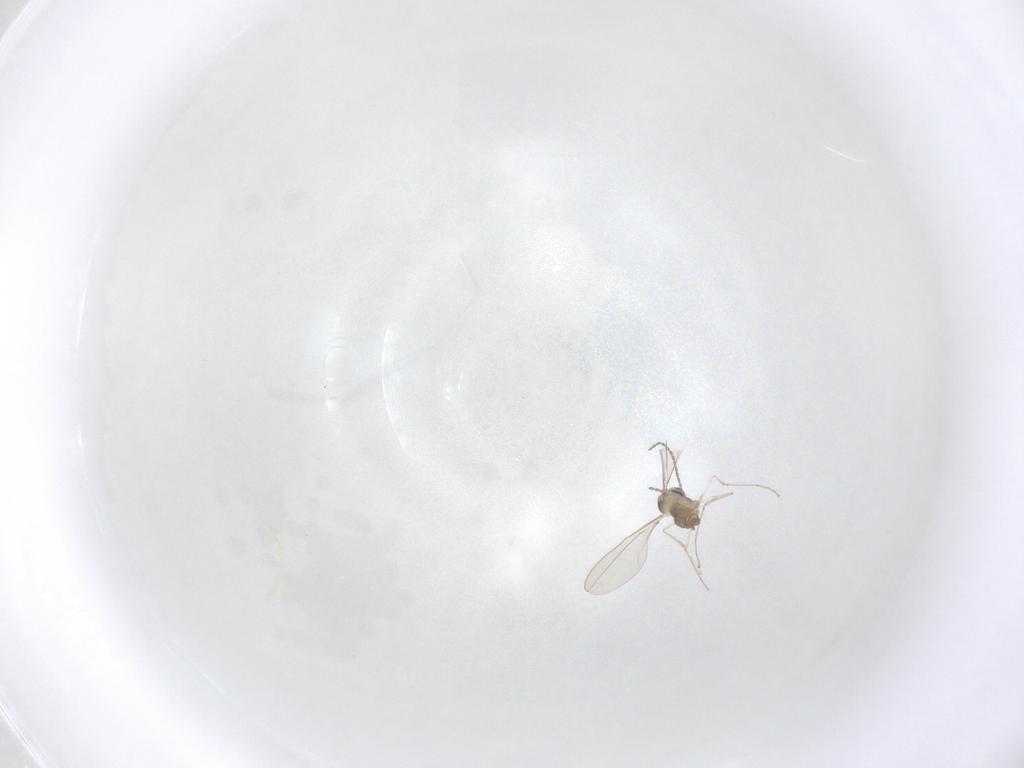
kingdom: Animalia
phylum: Arthropoda
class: Insecta
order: Diptera
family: Cecidomyiidae
